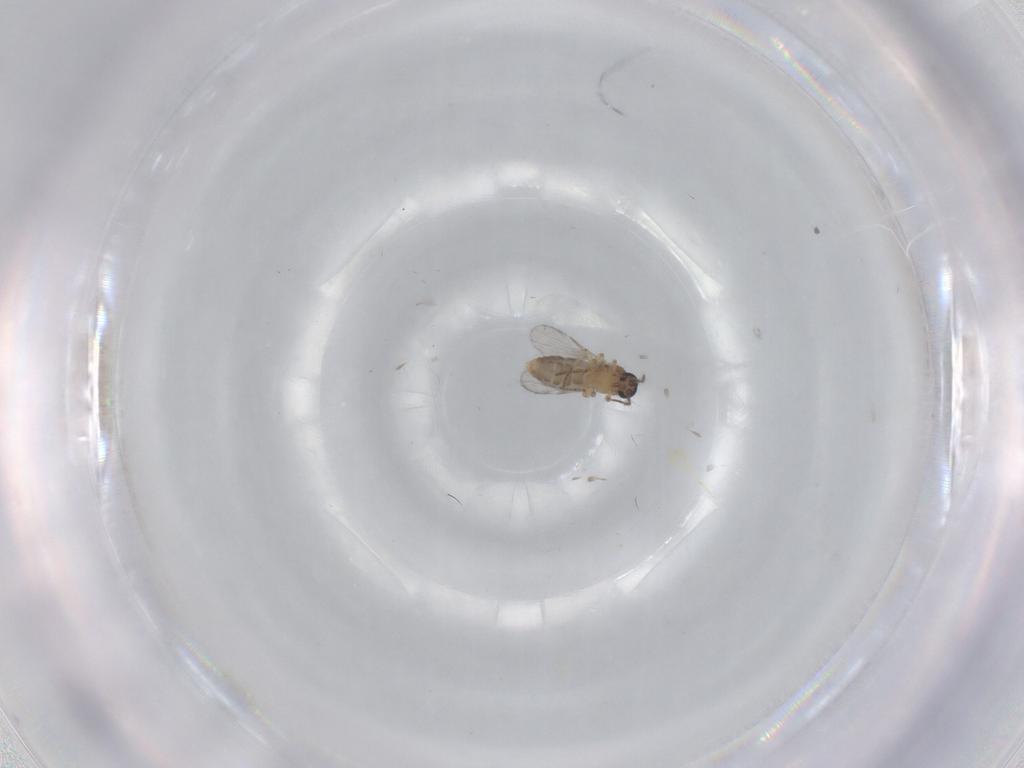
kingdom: Animalia
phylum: Arthropoda
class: Insecta
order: Diptera
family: Ceratopogonidae
